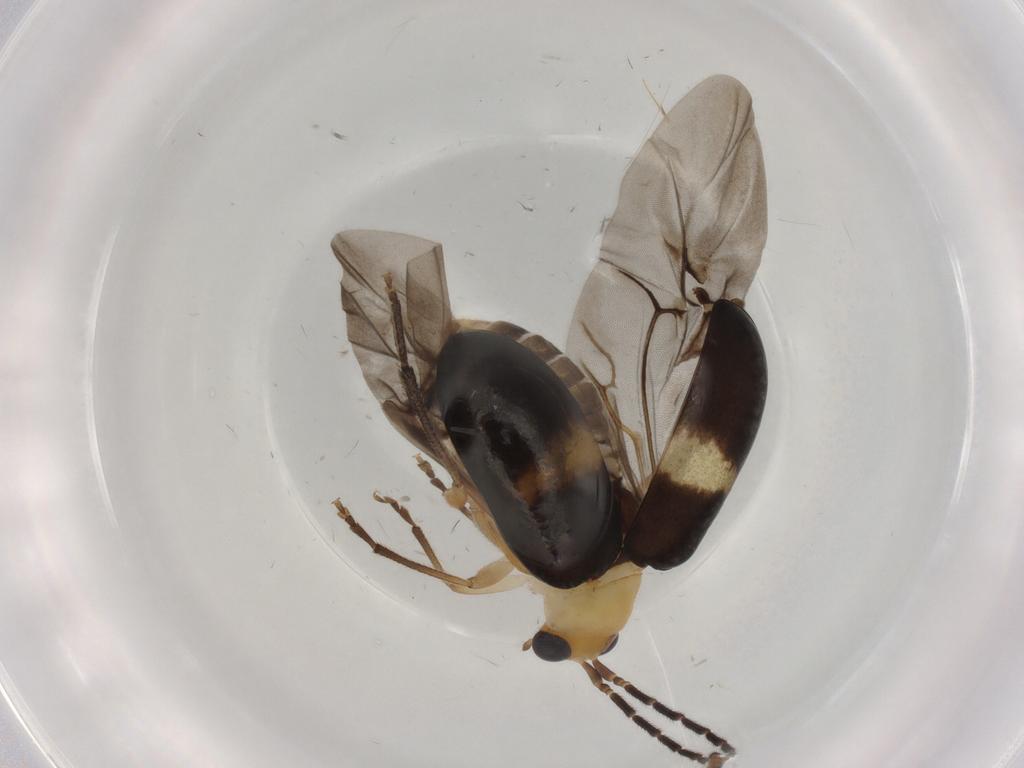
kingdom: Animalia
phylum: Arthropoda
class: Insecta
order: Coleoptera
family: Chrysomelidae
